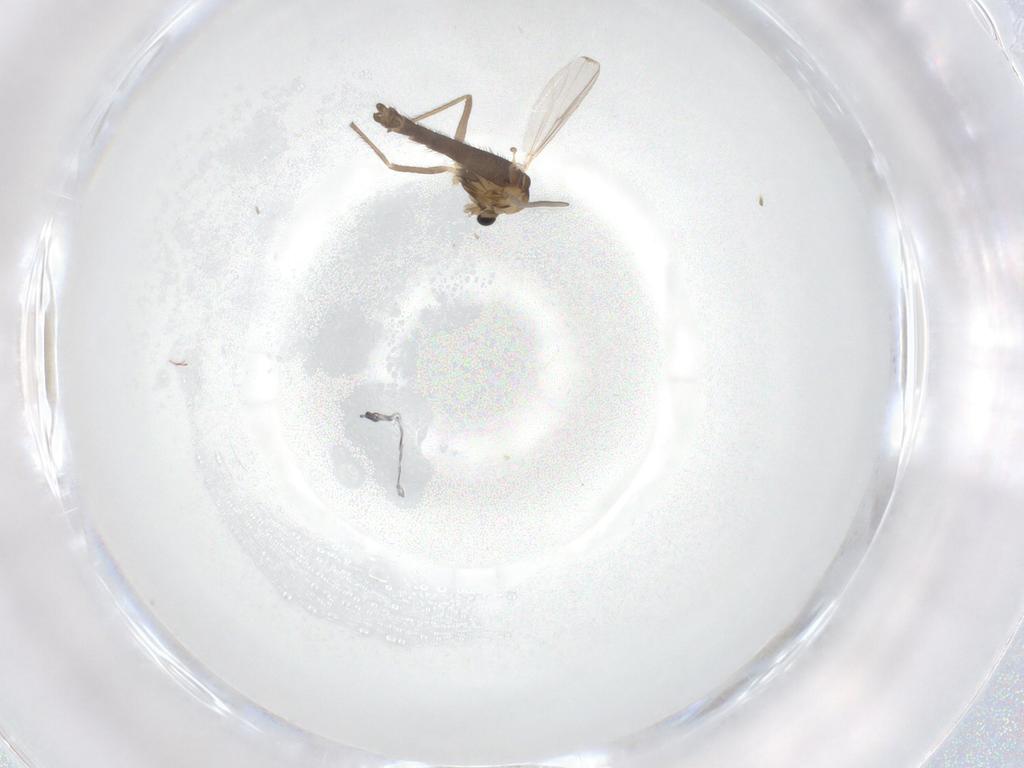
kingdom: Animalia
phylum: Arthropoda
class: Insecta
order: Diptera
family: Chironomidae
